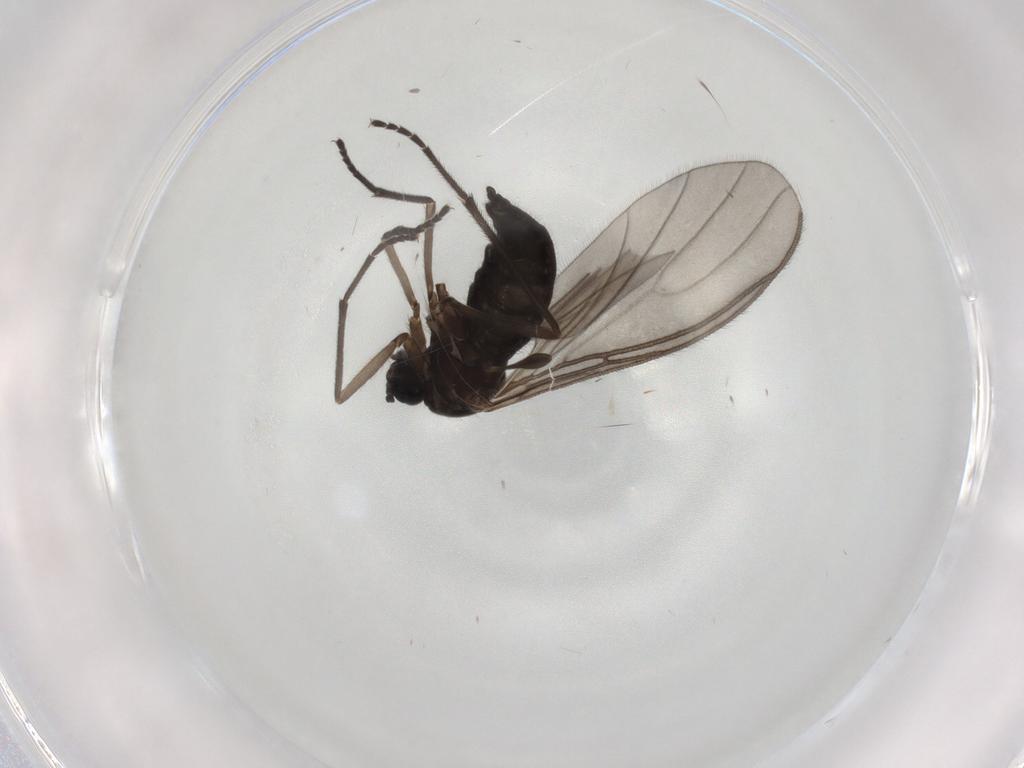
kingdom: Animalia
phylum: Arthropoda
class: Insecta
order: Diptera
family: Sciaridae
